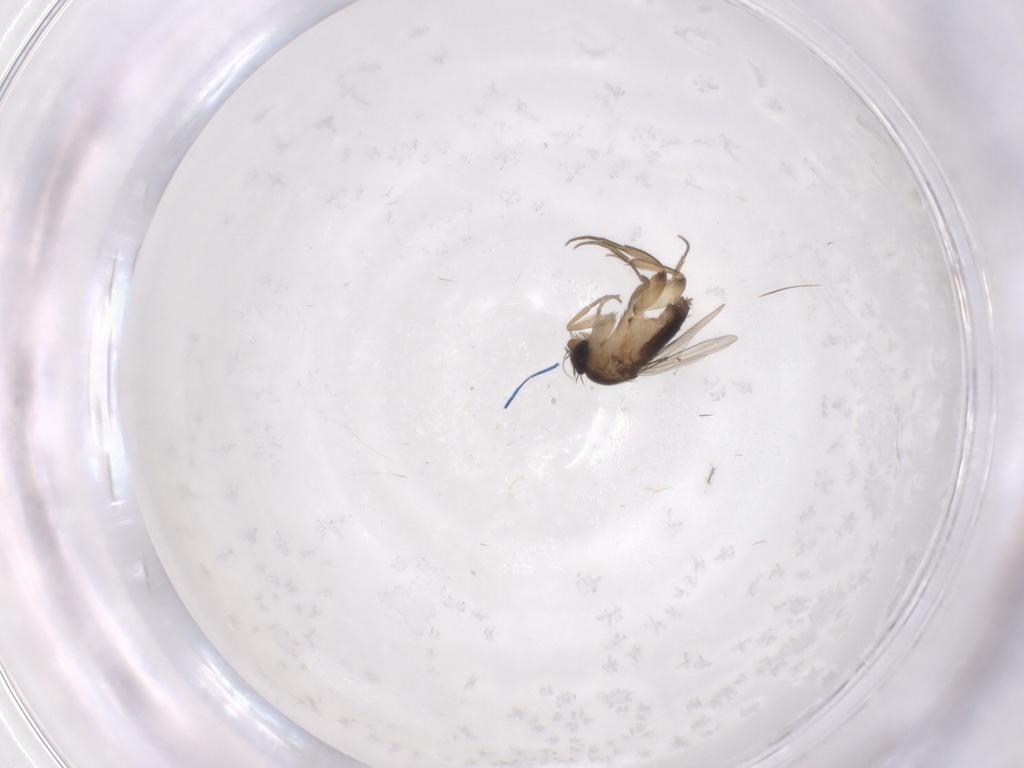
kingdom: Animalia
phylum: Arthropoda
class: Insecta
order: Diptera
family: Phoridae
